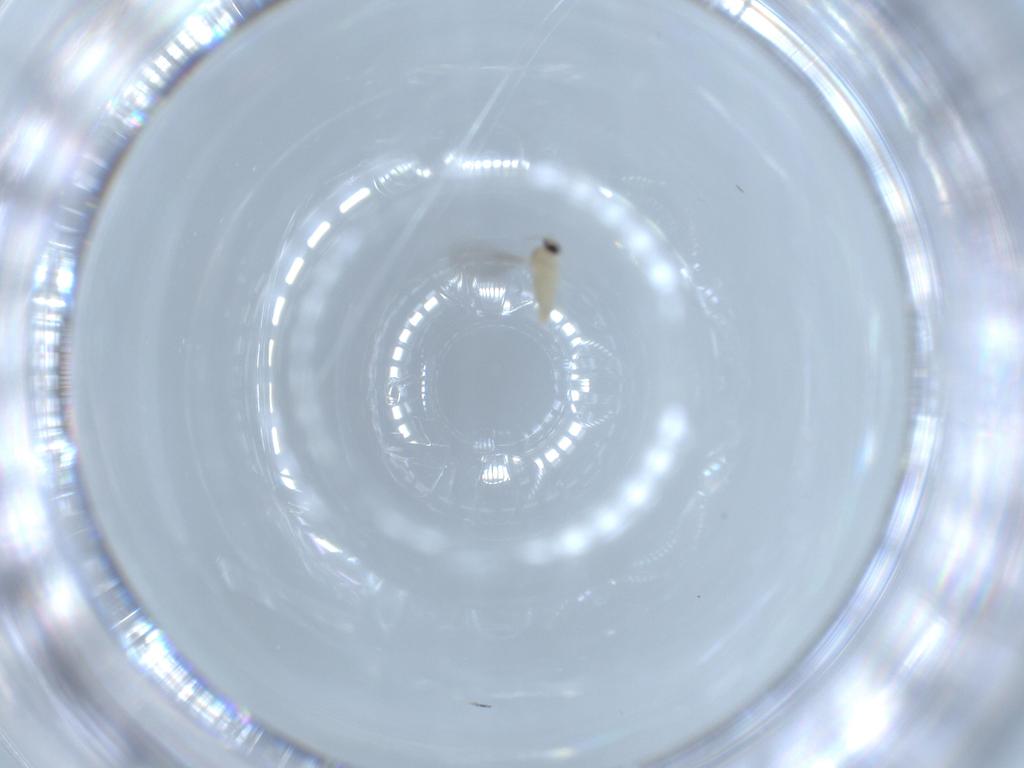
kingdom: Animalia
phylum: Arthropoda
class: Insecta
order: Diptera
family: Cecidomyiidae
